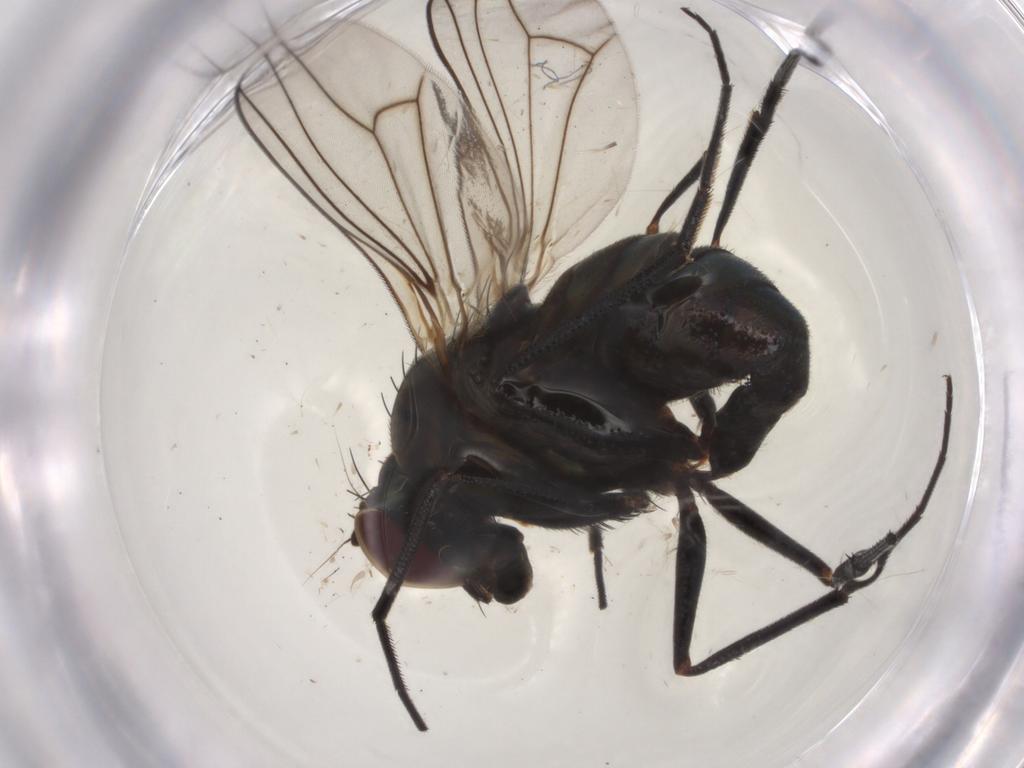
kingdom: Animalia
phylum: Arthropoda
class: Insecta
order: Diptera
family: Tachinidae
